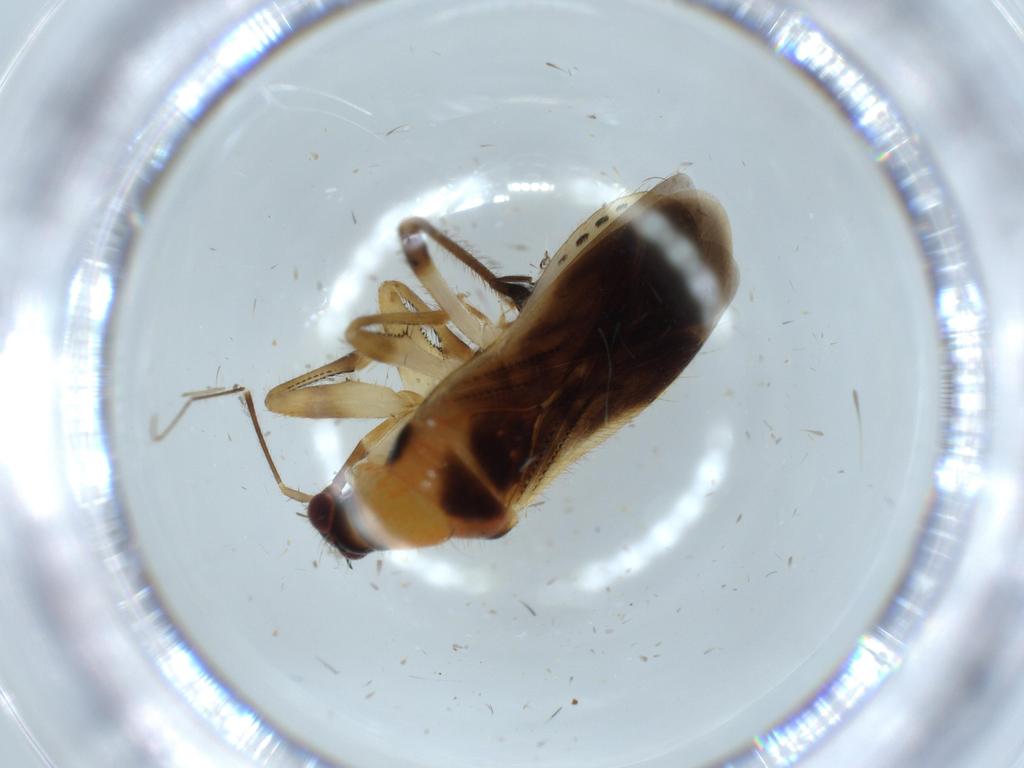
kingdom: Animalia
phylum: Arthropoda
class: Insecta
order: Hemiptera
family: Nabidae
